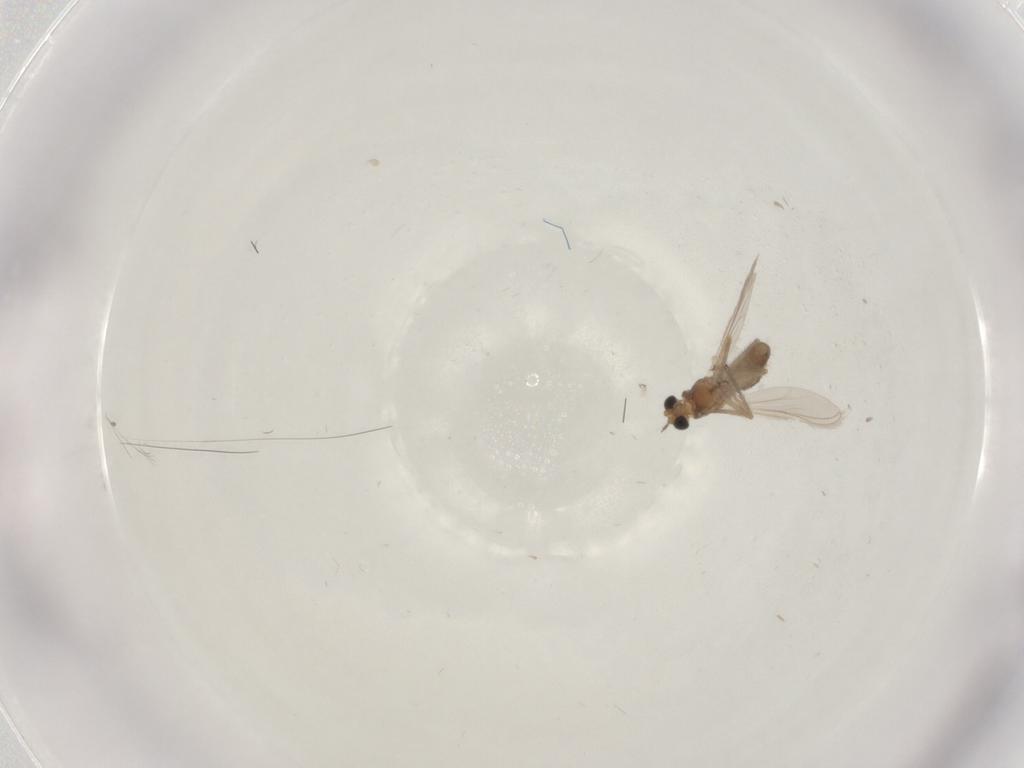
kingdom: Animalia
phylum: Arthropoda
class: Insecta
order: Diptera
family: Chironomidae
